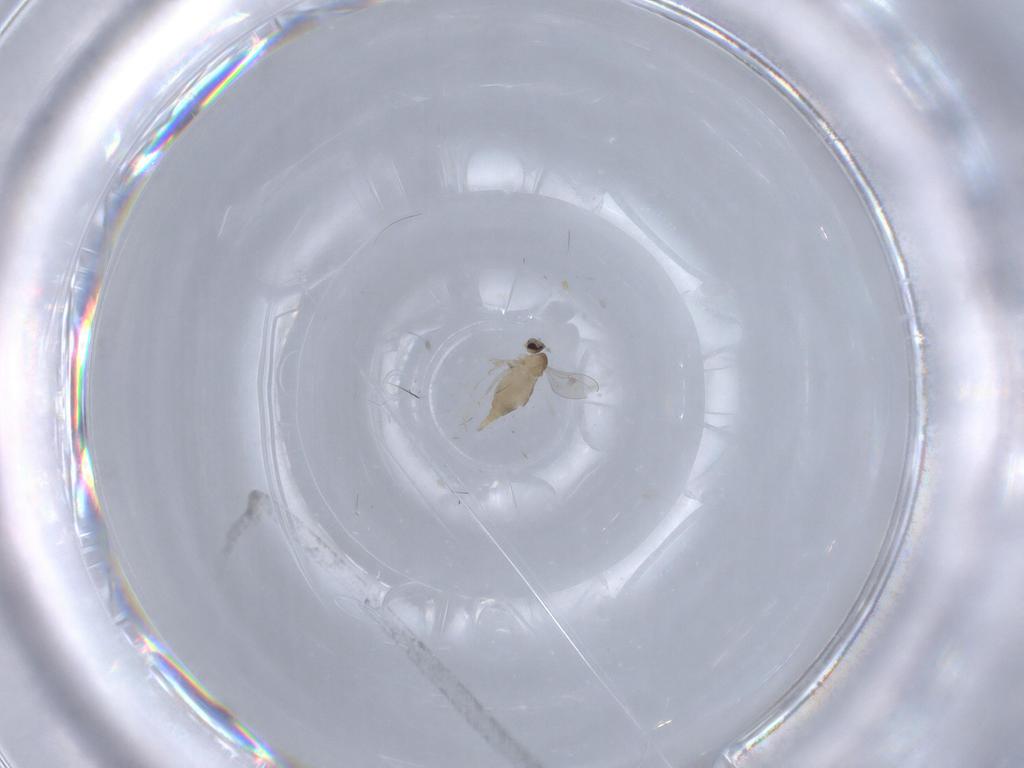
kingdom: Animalia
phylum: Arthropoda
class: Insecta
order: Diptera
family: Cecidomyiidae
